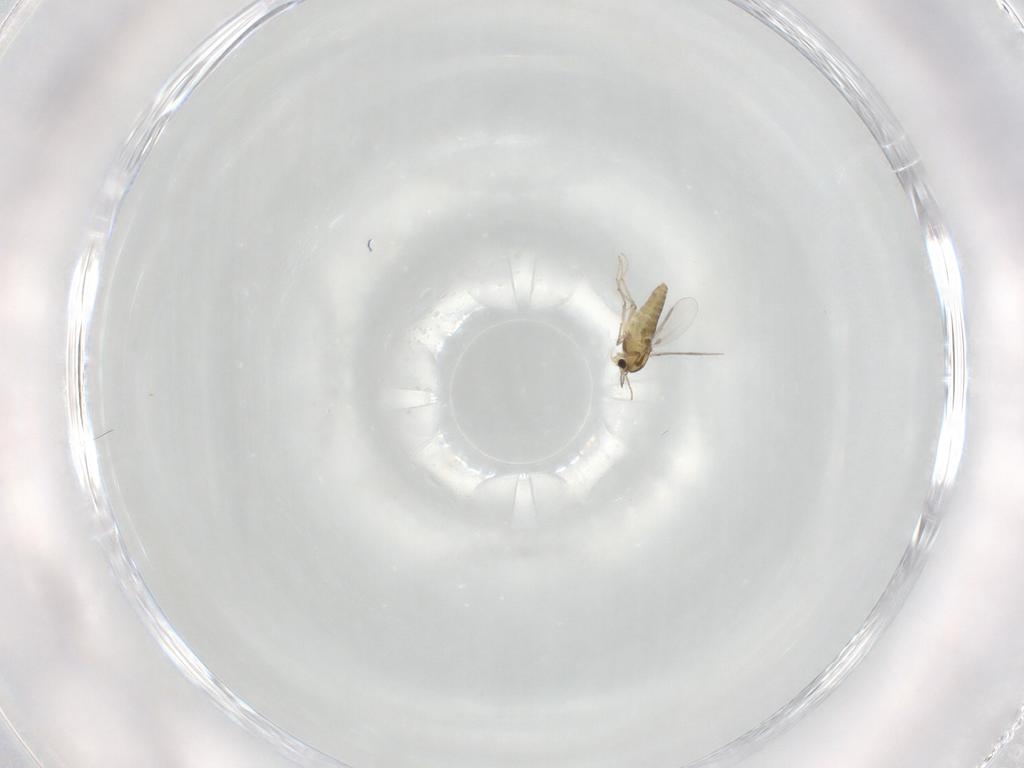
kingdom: Animalia
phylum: Arthropoda
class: Insecta
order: Diptera
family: Chironomidae
